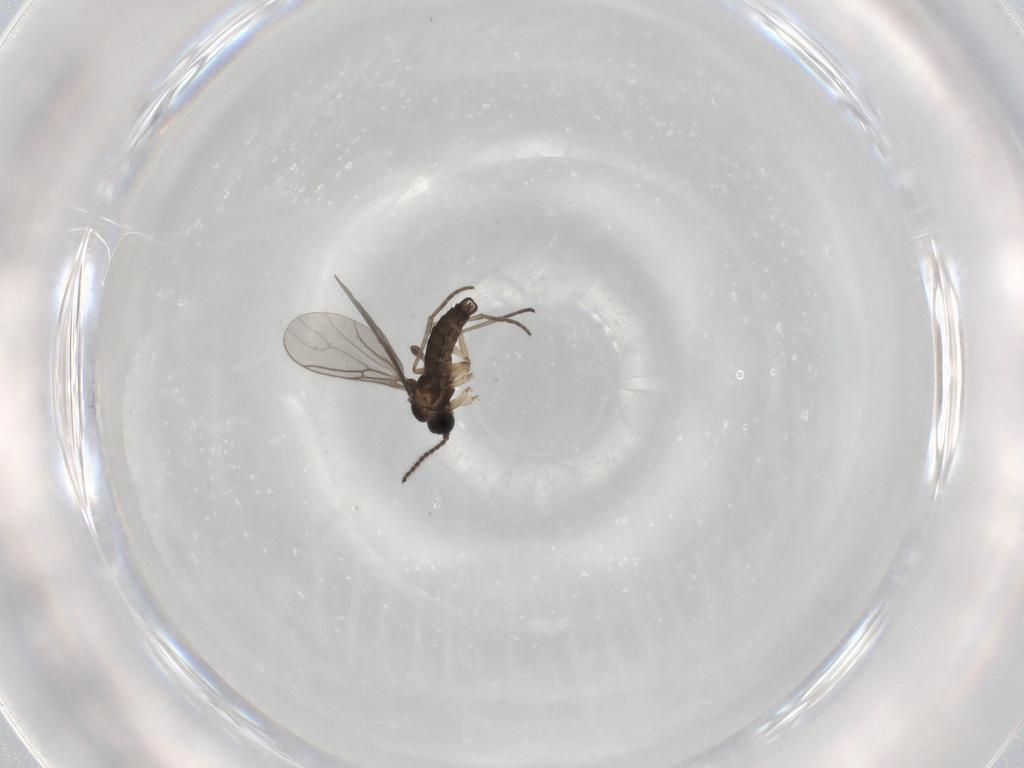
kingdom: Animalia
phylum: Arthropoda
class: Insecta
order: Diptera
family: Sciaridae
